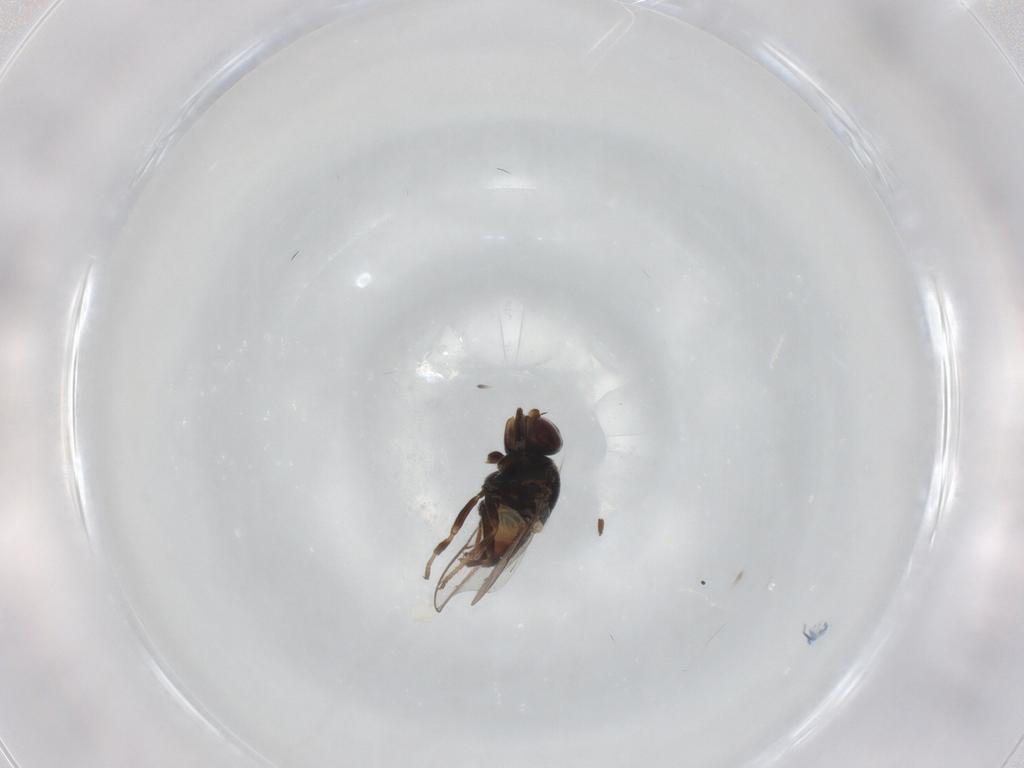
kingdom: Animalia
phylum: Arthropoda
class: Insecta
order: Diptera
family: Chloropidae
